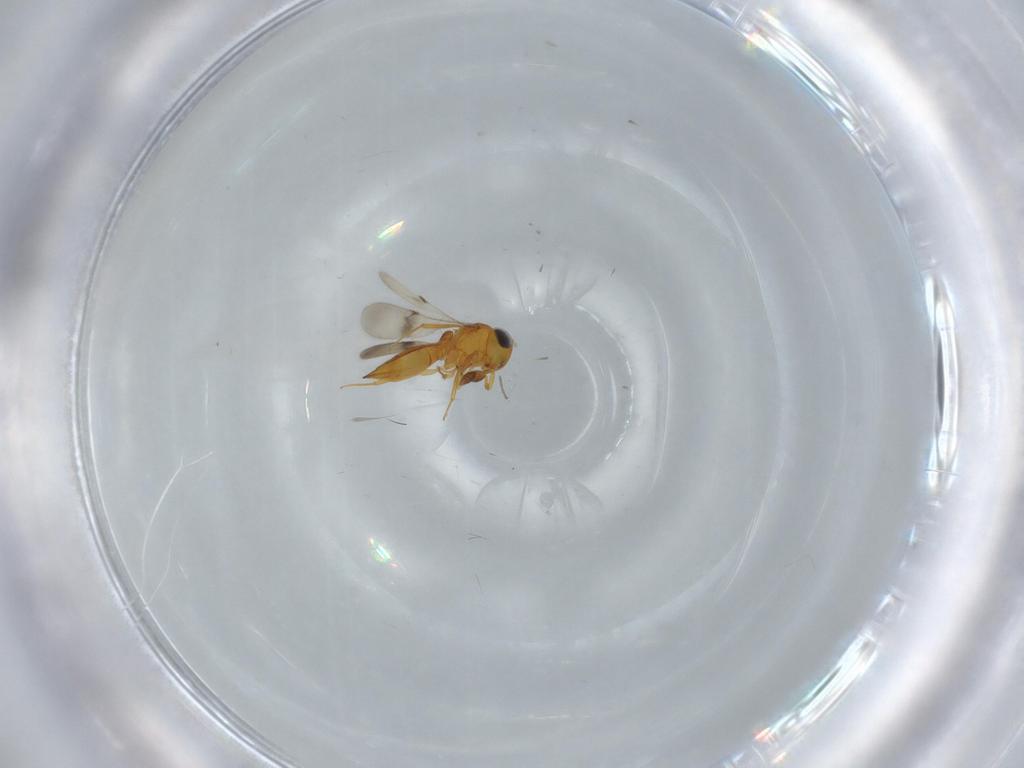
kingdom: Animalia
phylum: Arthropoda
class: Insecta
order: Hymenoptera
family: Scelionidae
